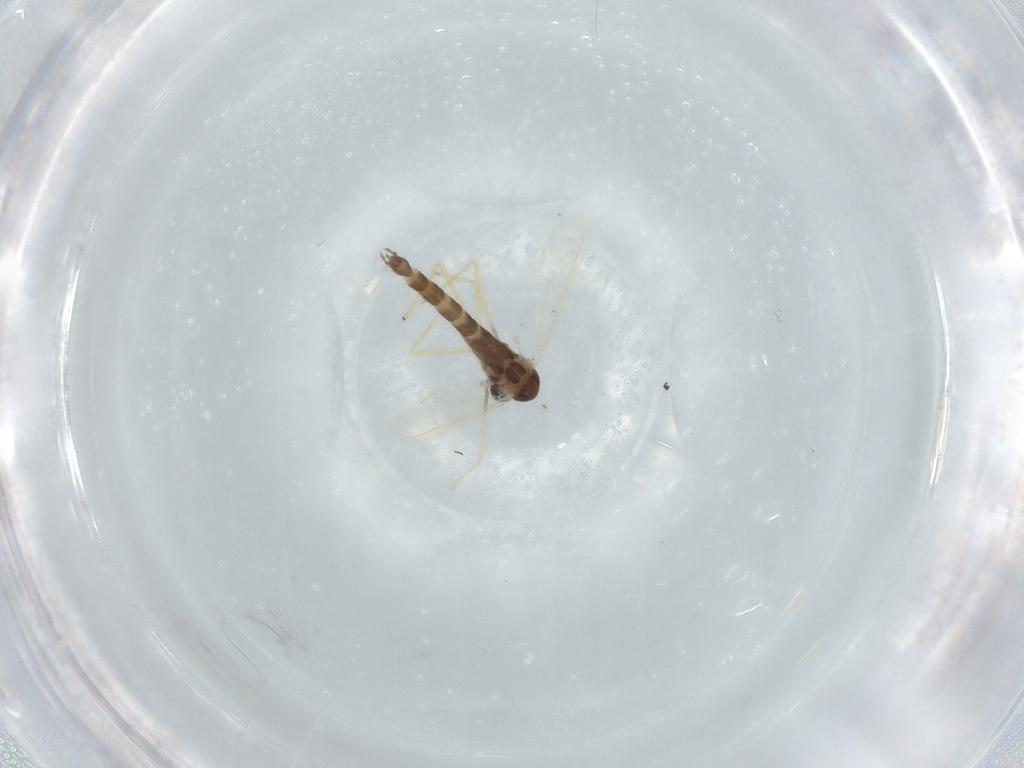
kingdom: Animalia
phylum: Arthropoda
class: Insecta
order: Diptera
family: Chironomidae
